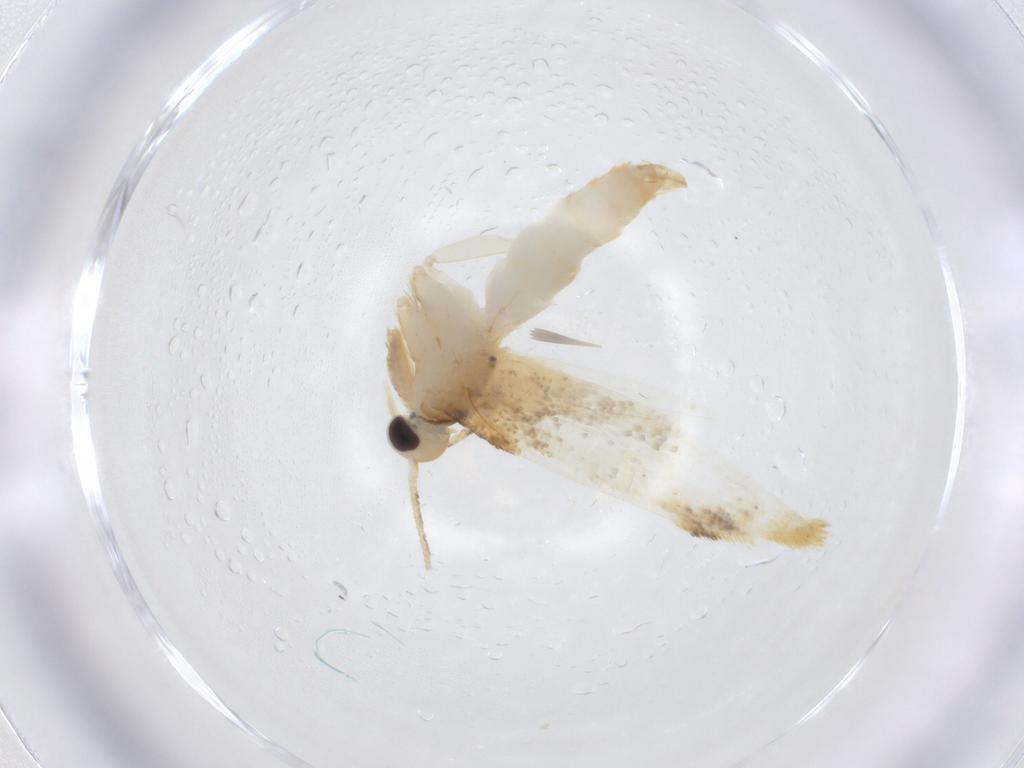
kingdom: Animalia
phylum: Arthropoda
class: Insecta
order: Lepidoptera
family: Erebidae
